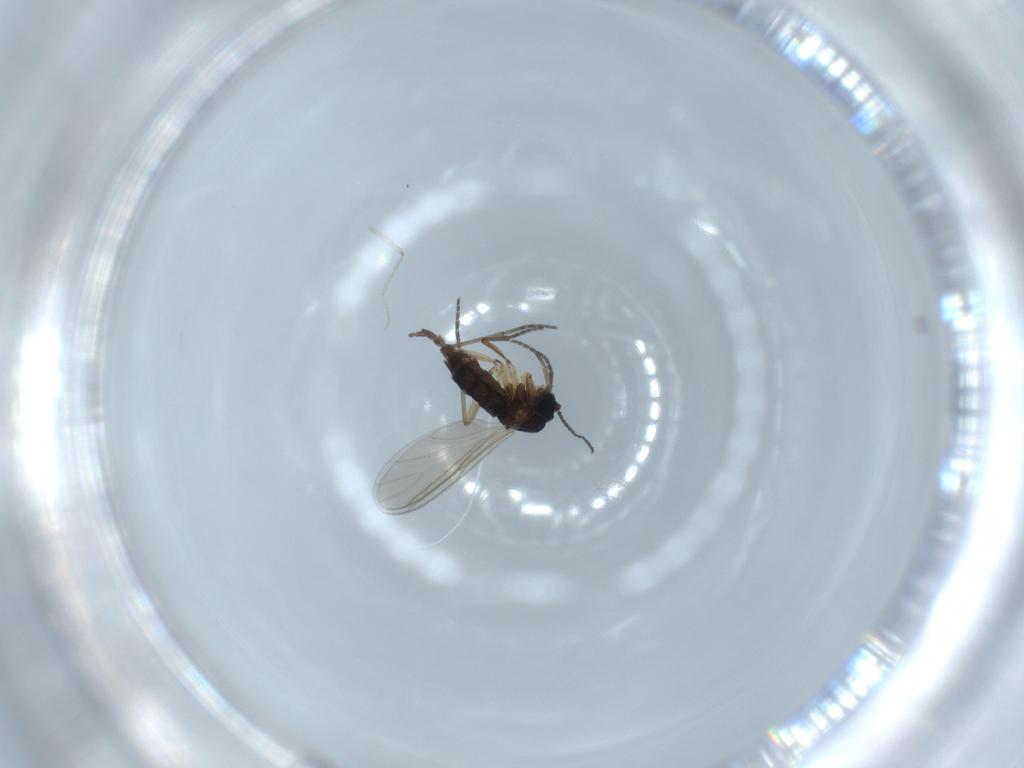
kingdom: Animalia
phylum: Arthropoda
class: Insecta
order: Diptera
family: Sciaridae
